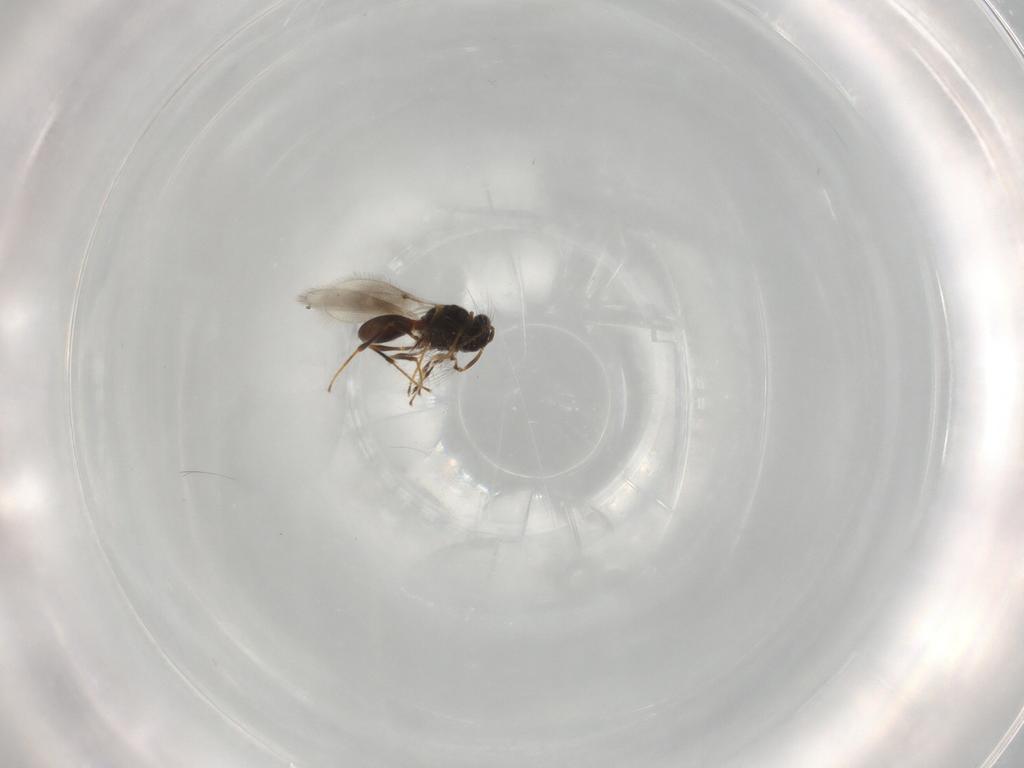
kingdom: Animalia
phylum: Arthropoda
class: Insecta
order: Hymenoptera
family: Platygastridae
